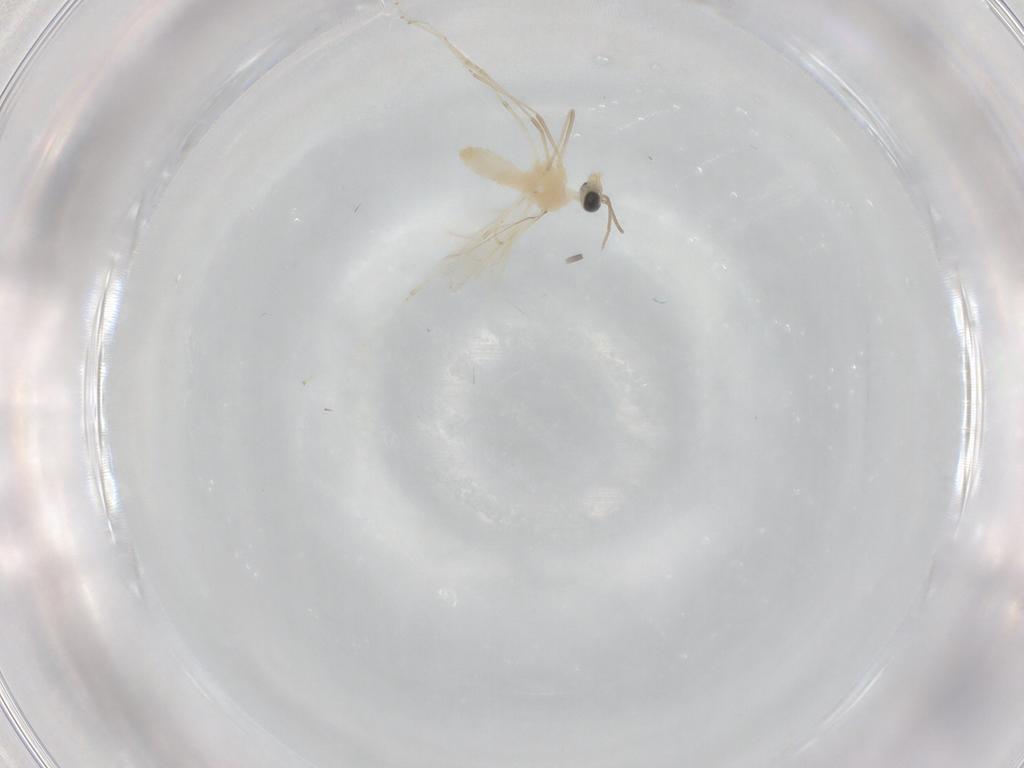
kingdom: Animalia
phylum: Arthropoda
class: Insecta
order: Diptera
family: Cecidomyiidae
